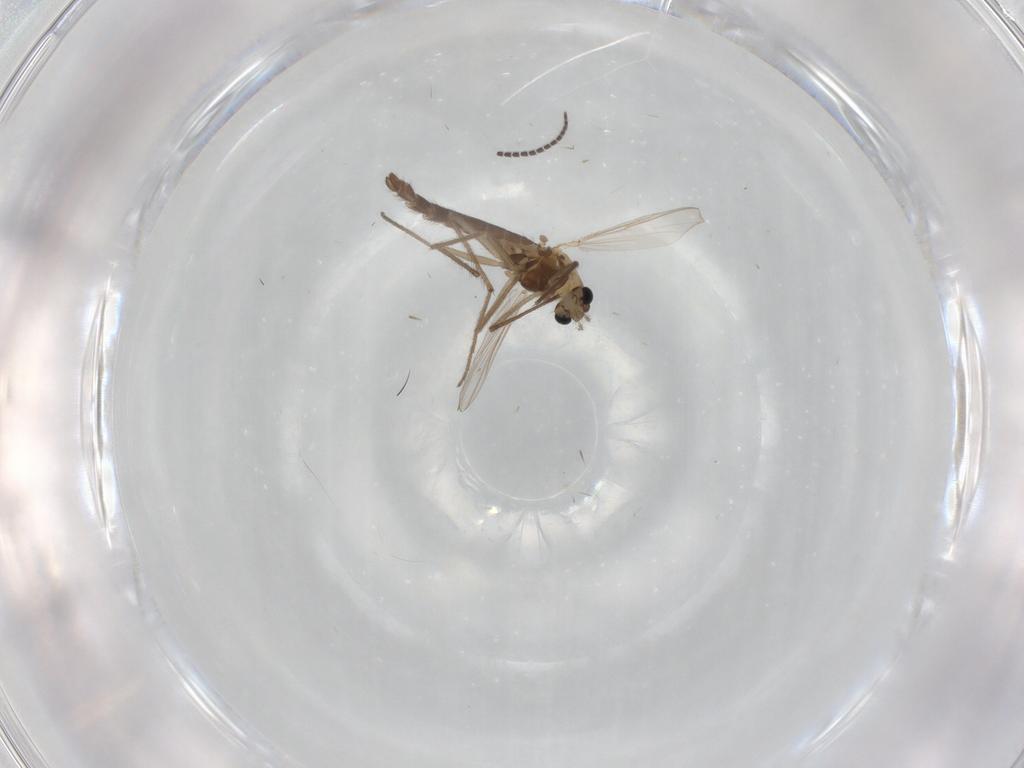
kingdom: Animalia
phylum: Arthropoda
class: Insecta
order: Diptera
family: Chironomidae
